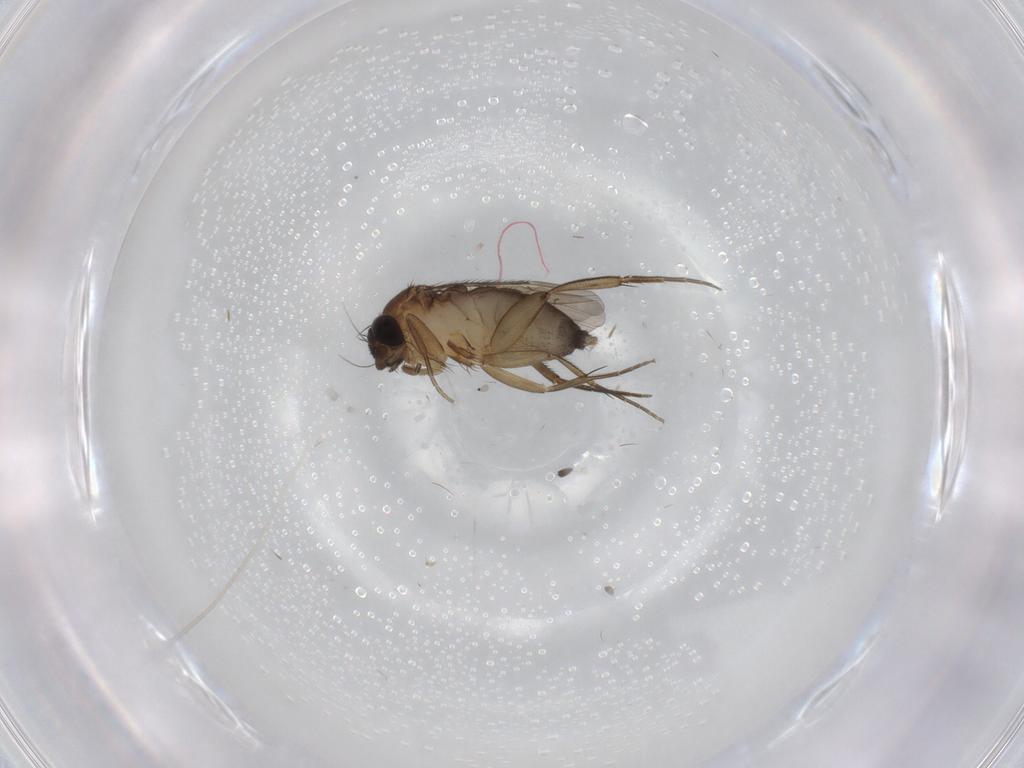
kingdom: Animalia
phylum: Arthropoda
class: Insecta
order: Diptera
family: Phoridae
